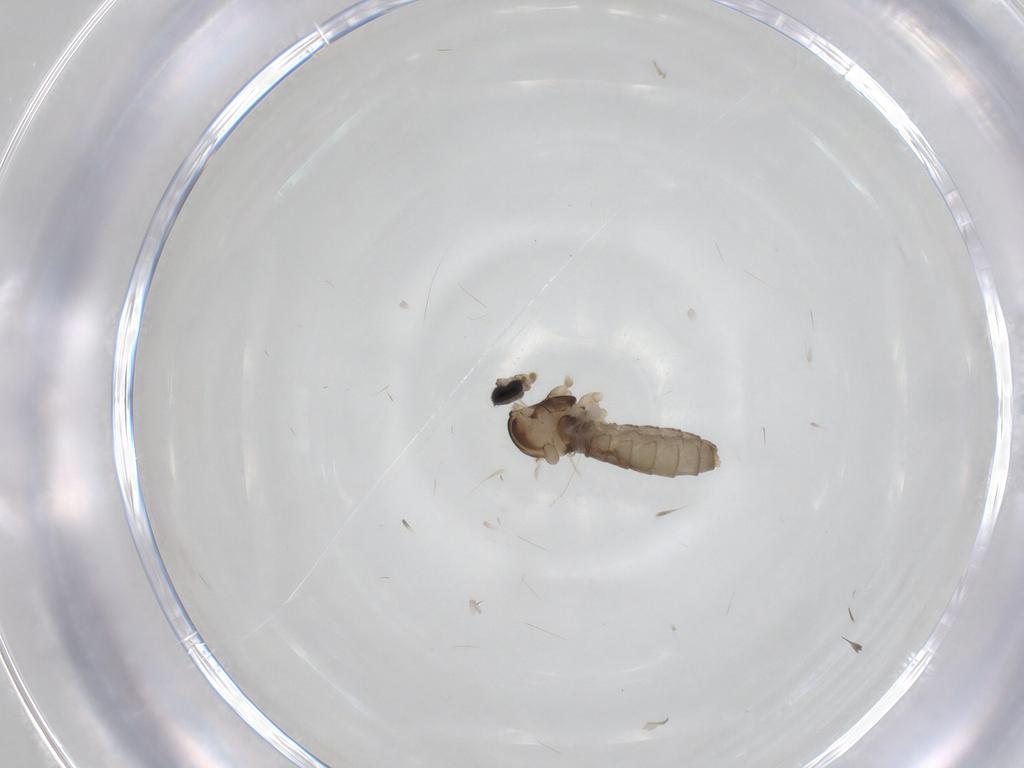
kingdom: Animalia
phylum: Arthropoda
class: Insecta
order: Diptera
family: Cecidomyiidae
